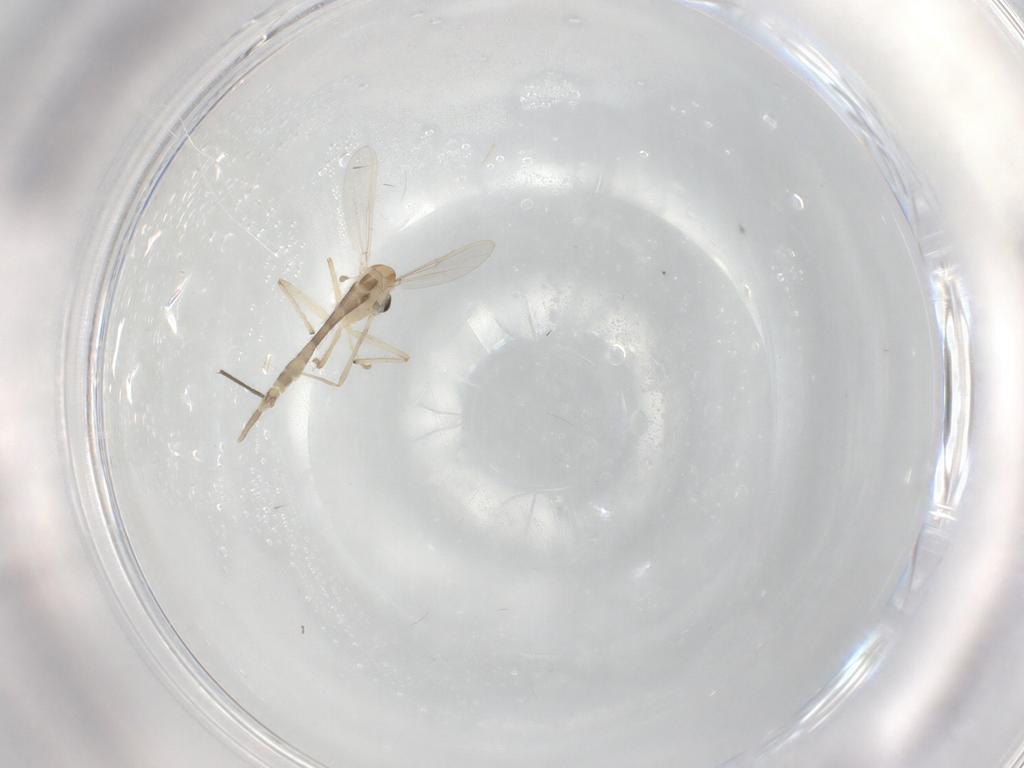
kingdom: Animalia
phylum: Arthropoda
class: Insecta
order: Diptera
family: Chironomidae
